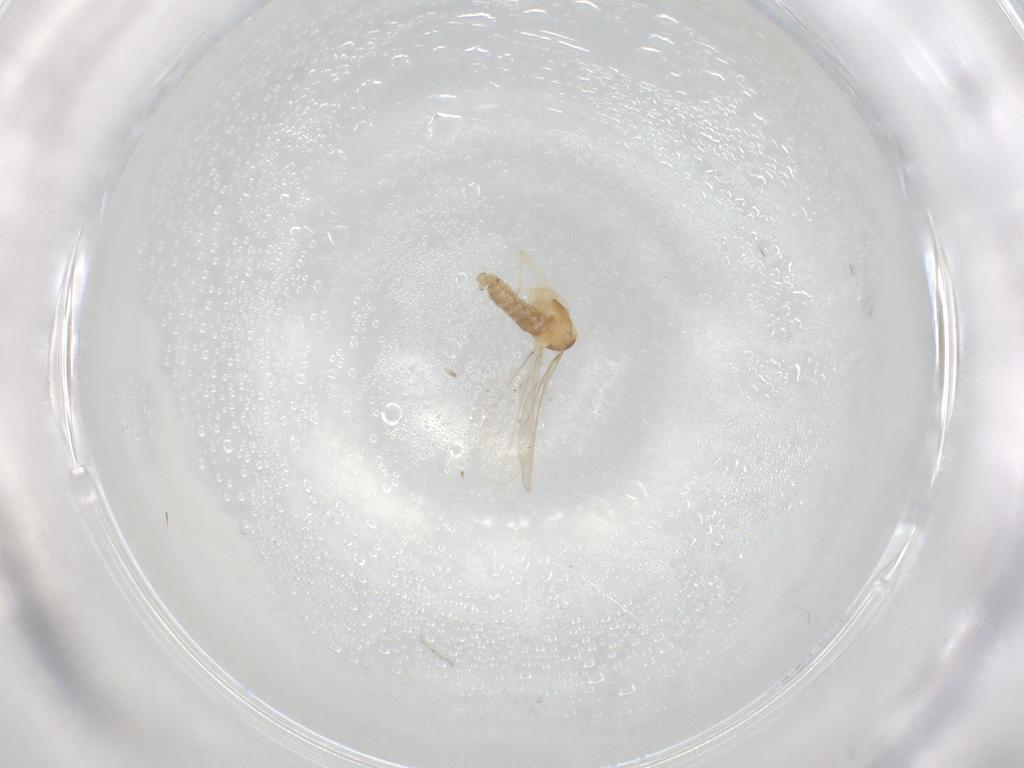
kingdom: Animalia
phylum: Arthropoda
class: Insecta
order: Diptera
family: Cecidomyiidae
